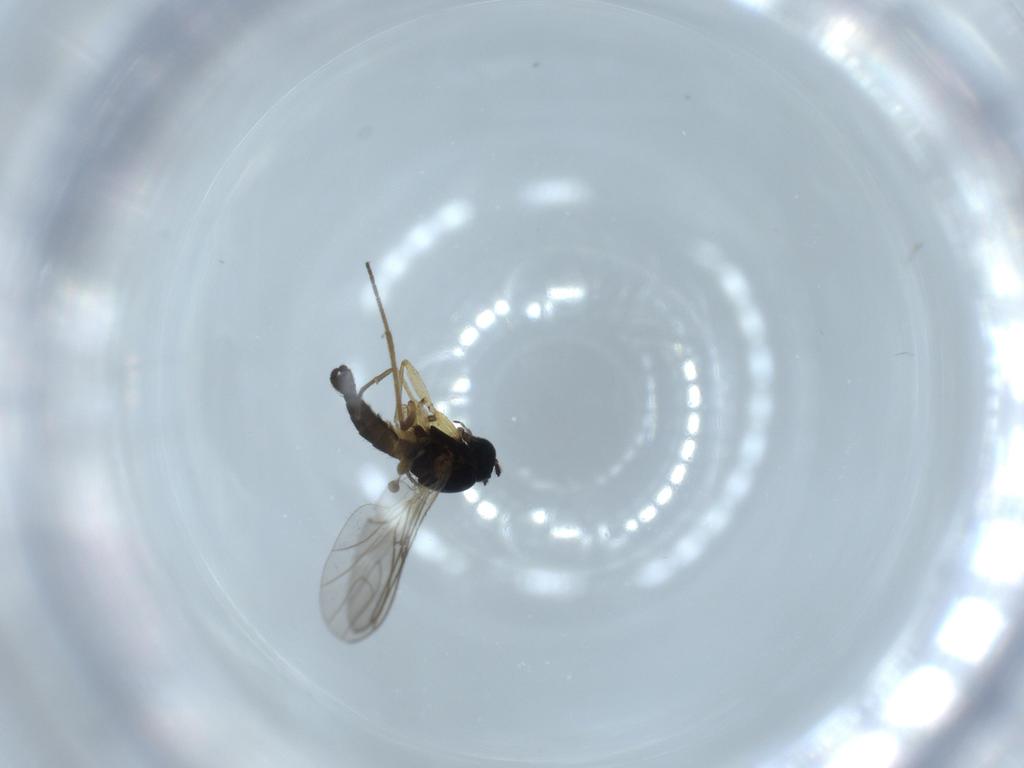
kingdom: Animalia
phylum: Arthropoda
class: Insecta
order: Diptera
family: Sciaridae
